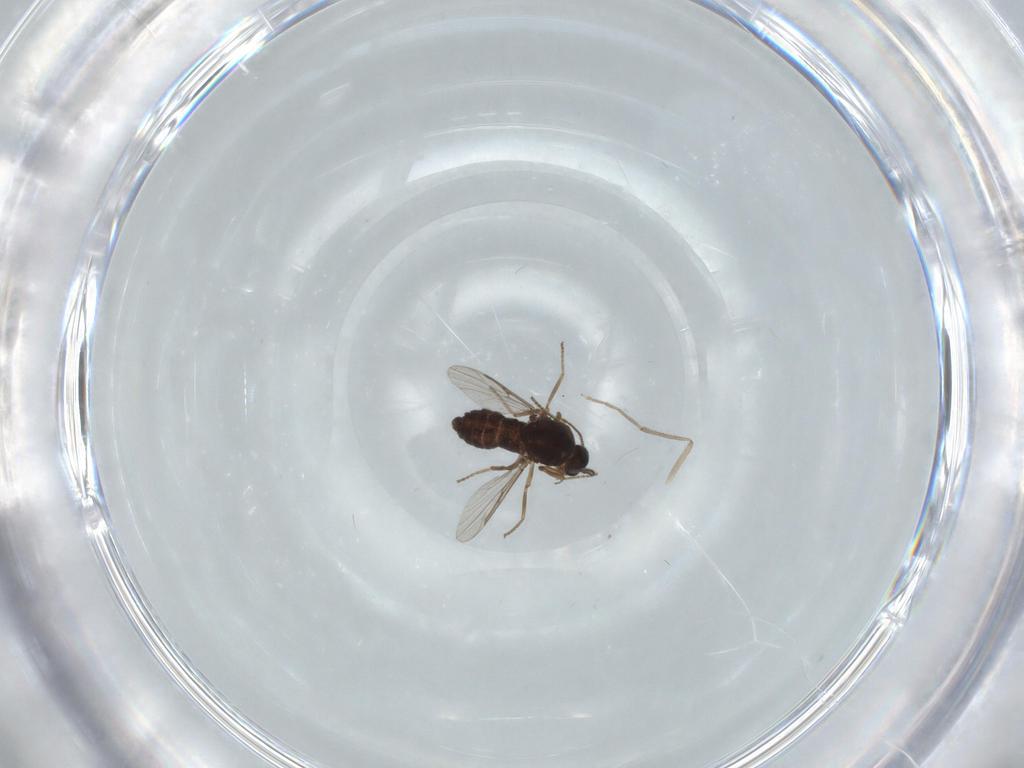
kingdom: Animalia
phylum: Arthropoda
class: Insecta
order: Diptera
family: Ceratopogonidae
